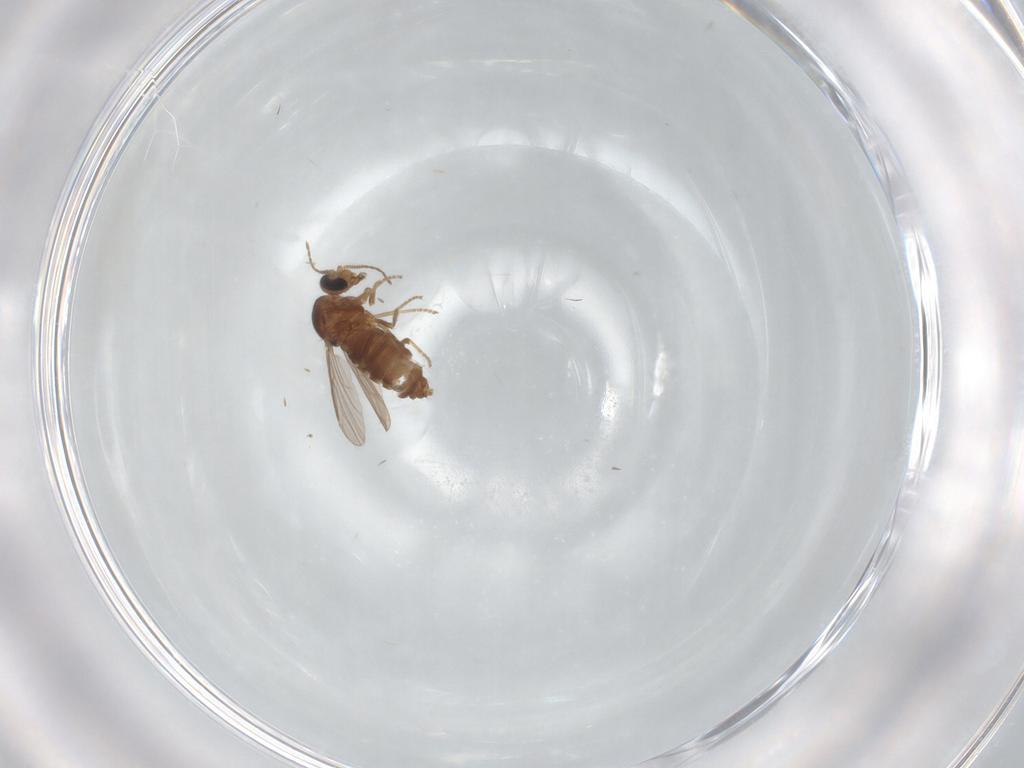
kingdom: Animalia
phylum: Arthropoda
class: Insecta
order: Diptera
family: Ceratopogonidae
